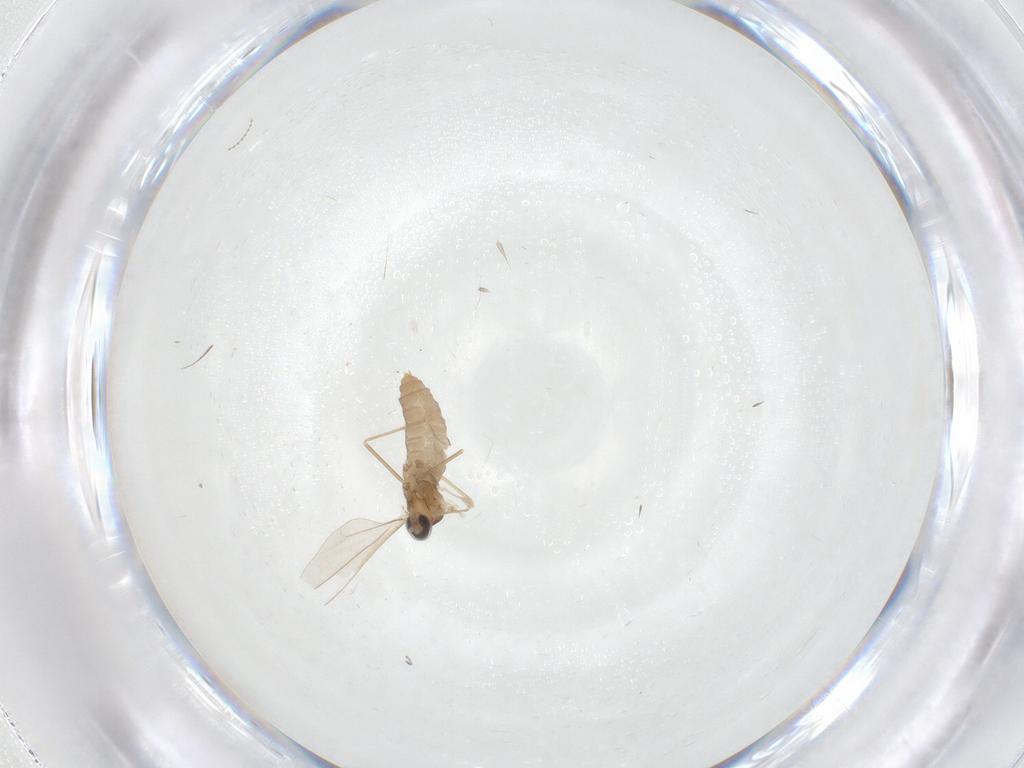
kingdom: Animalia
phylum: Arthropoda
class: Insecta
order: Diptera
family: Cecidomyiidae
